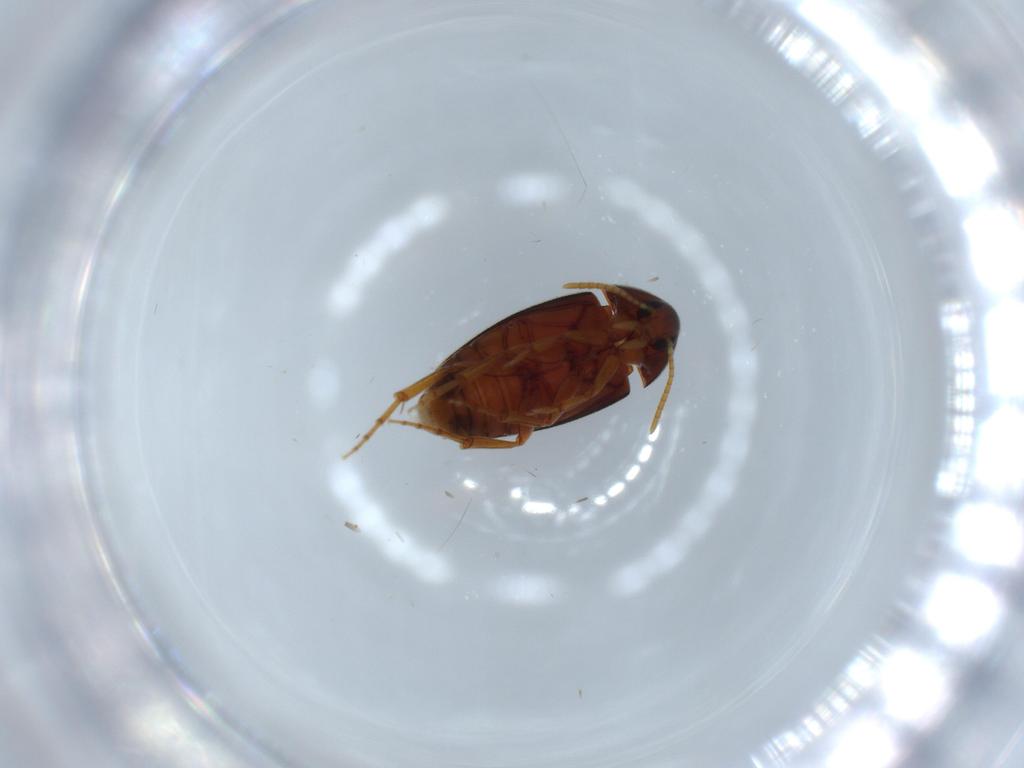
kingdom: Animalia
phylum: Arthropoda
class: Insecta
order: Coleoptera
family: Scraptiidae
